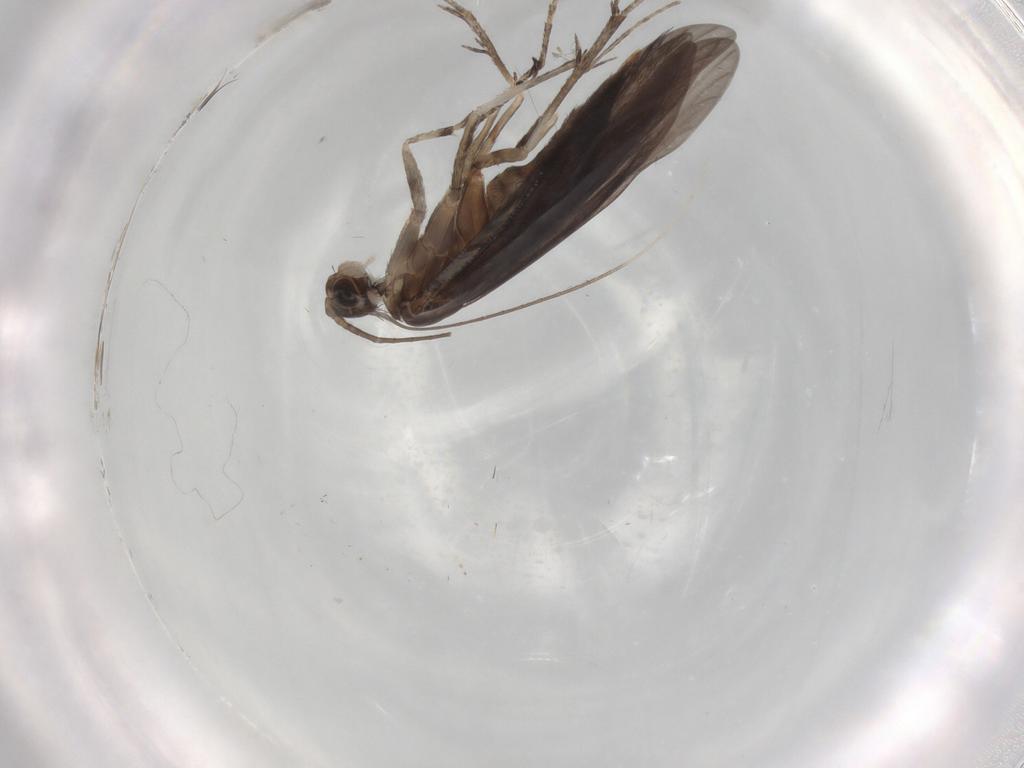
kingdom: Animalia
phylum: Arthropoda
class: Insecta
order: Trichoptera
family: Xiphocentronidae
